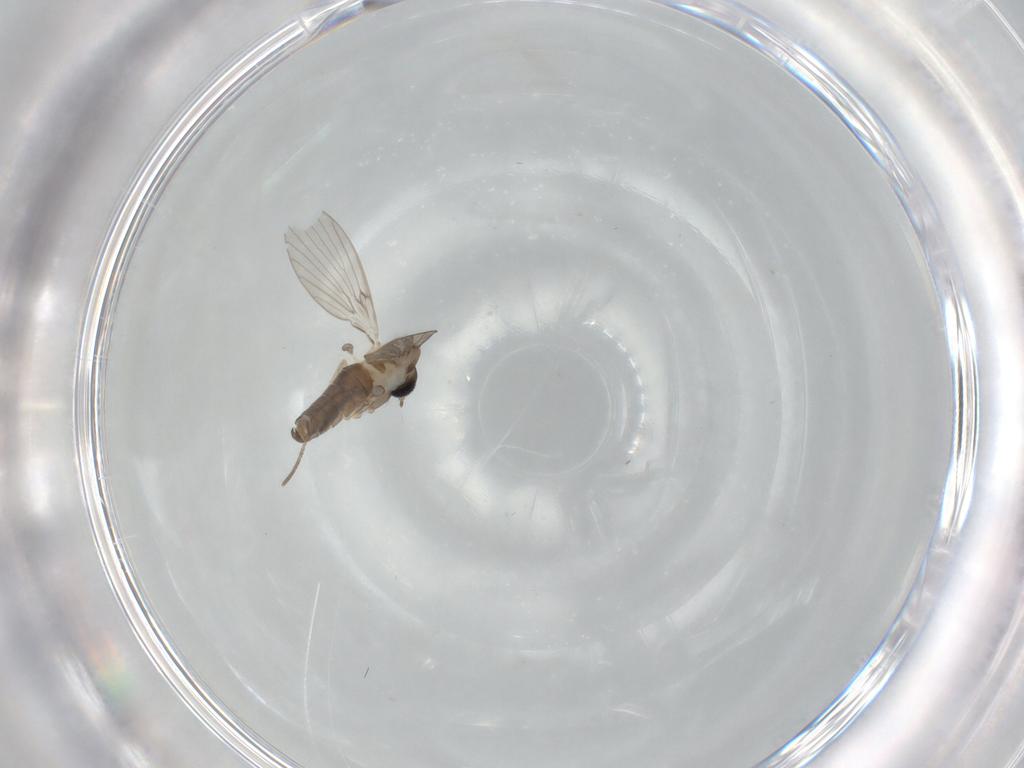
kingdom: Animalia
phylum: Arthropoda
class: Insecta
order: Diptera
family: Psychodidae
